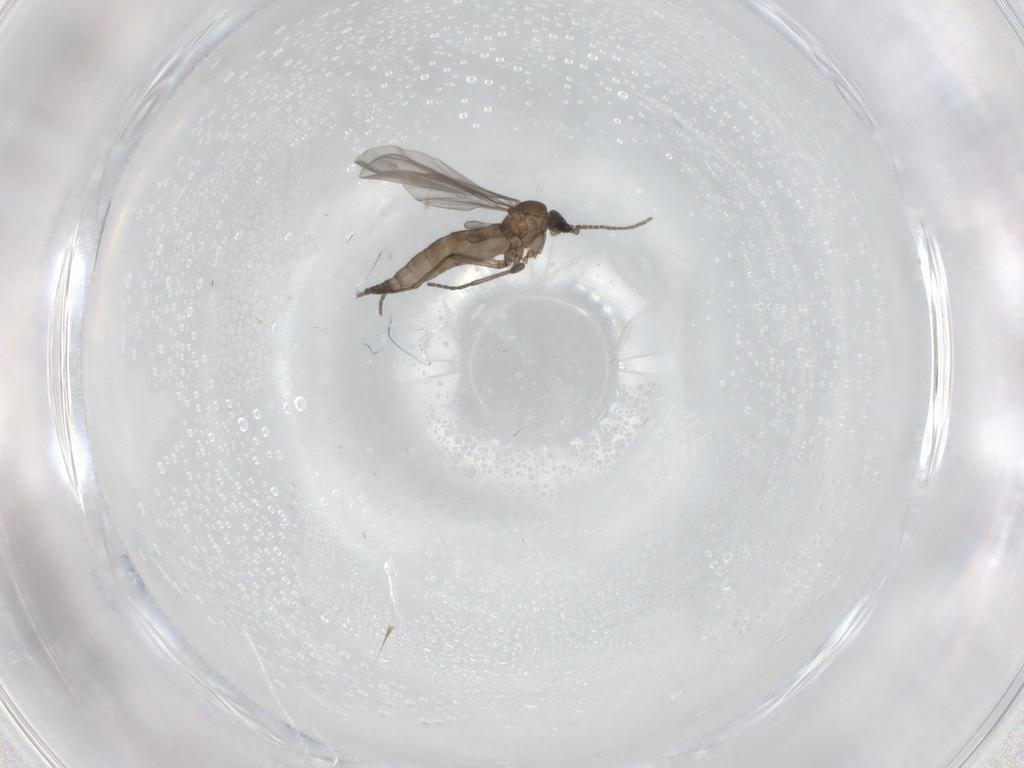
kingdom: Animalia
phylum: Arthropoda
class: Insecta
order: Diptera
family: Sciaridae
